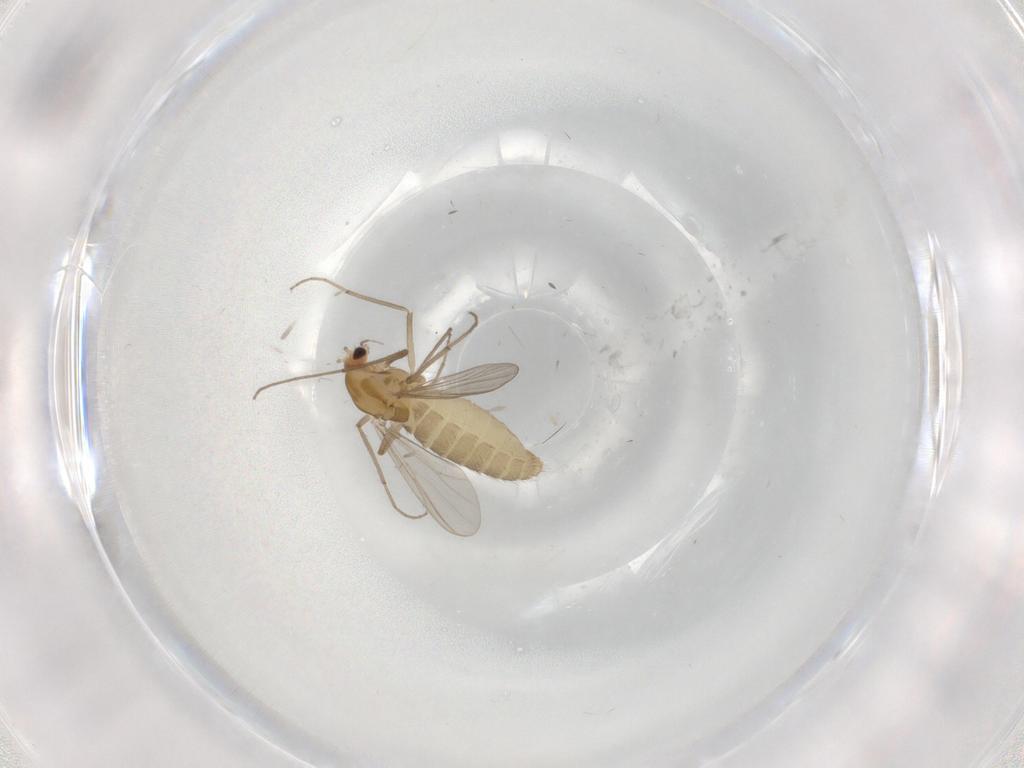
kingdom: Animalia
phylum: Arthropoda
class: Insecta
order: Diptera
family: Chironomidae
